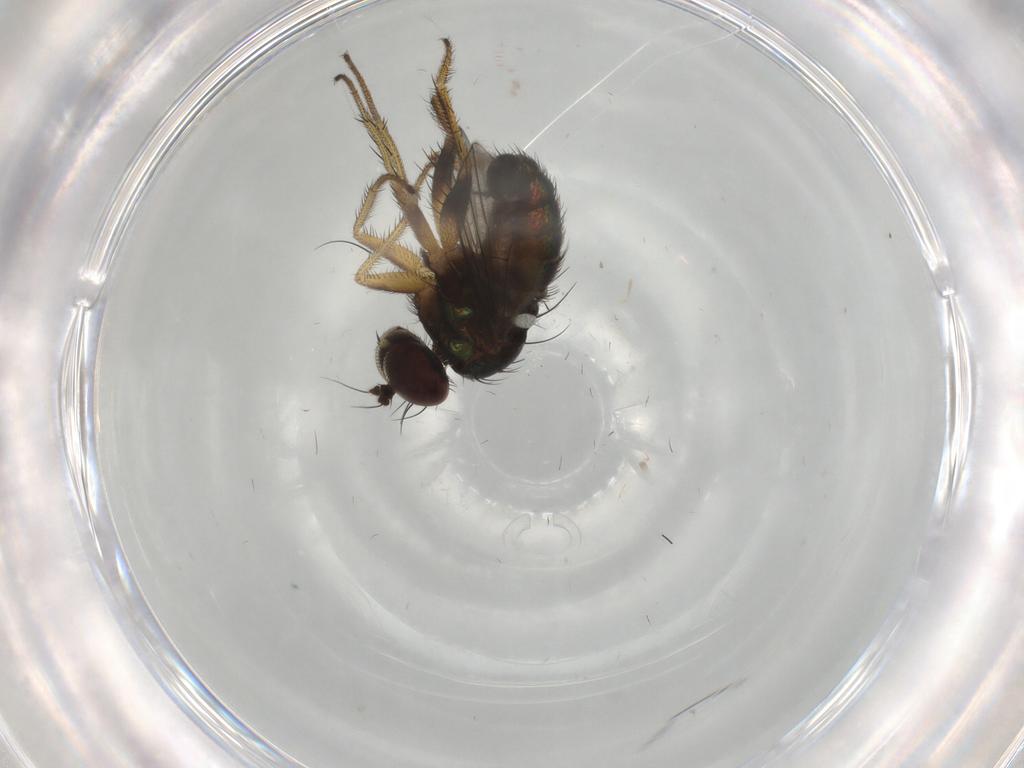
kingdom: Animalia
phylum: Arthropoda
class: Insecta
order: Diptera
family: Dolichopodidae
